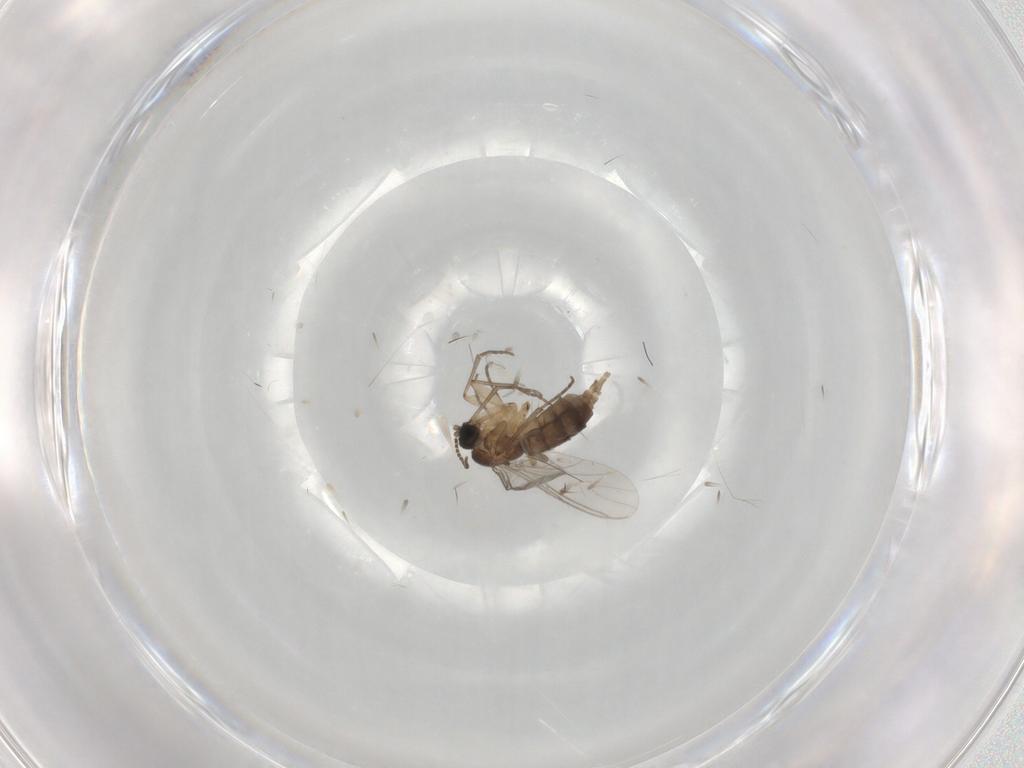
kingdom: Animalia
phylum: Arthropoda
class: Insecta
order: Diptera
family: Sciaridae
